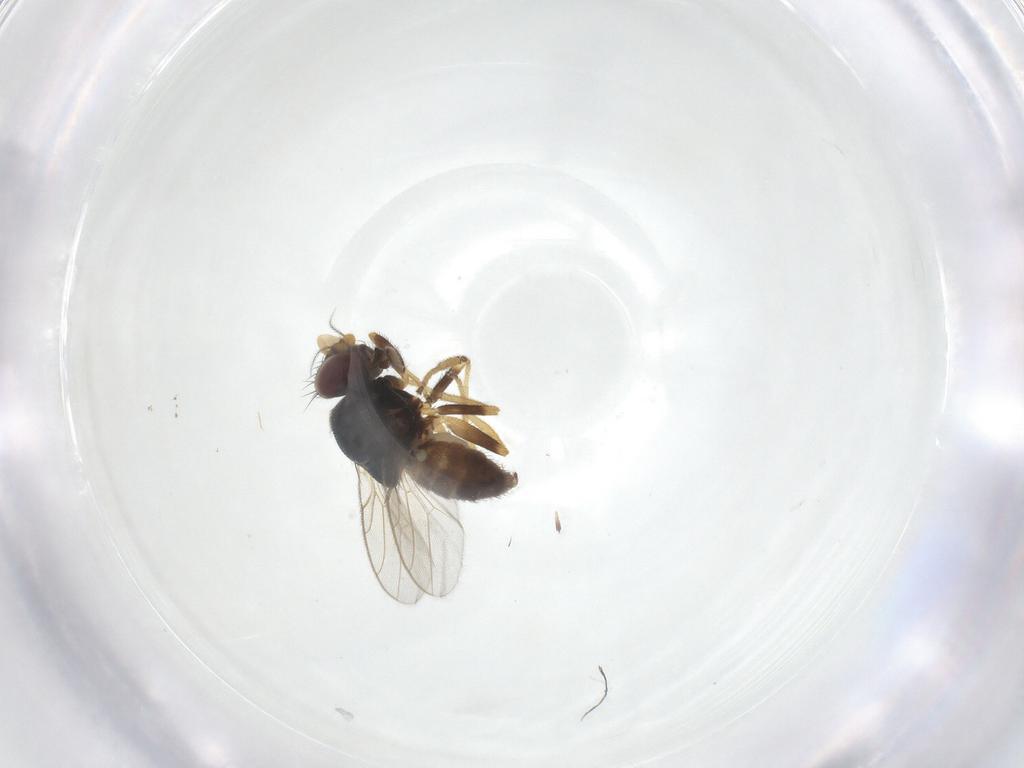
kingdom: Animalia
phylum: Arthropoda
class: Insecta
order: Diptera
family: Chloropidae
